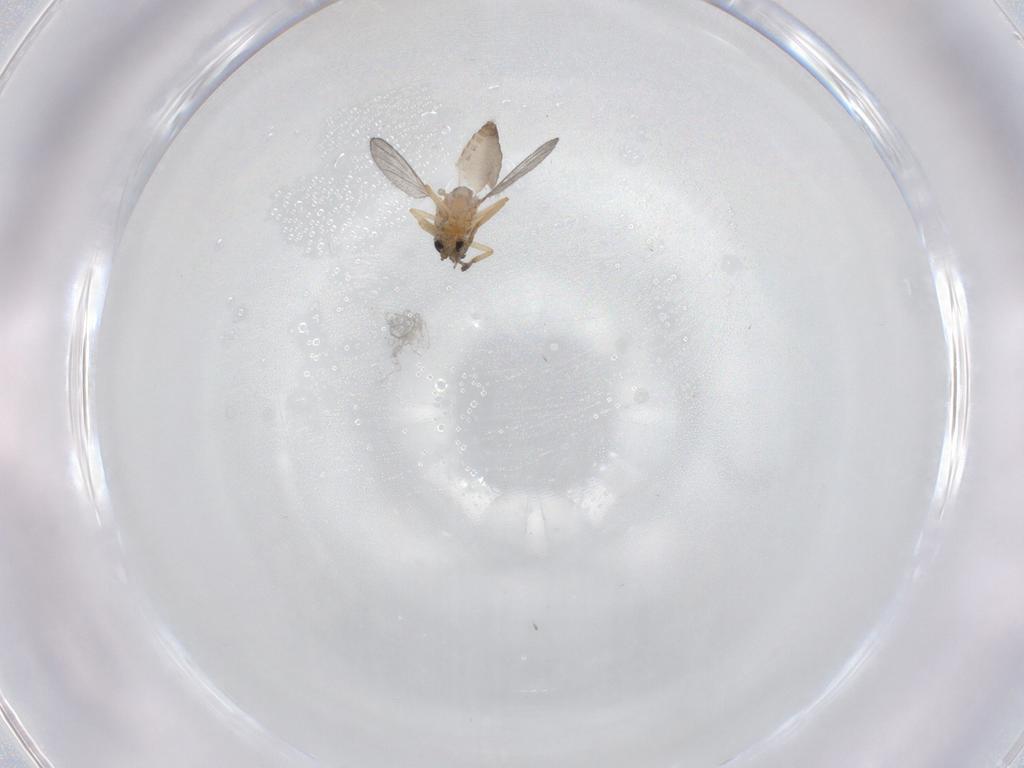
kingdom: Animalia
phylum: Arthropoda
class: Insecta
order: Diptera
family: Ceratopogonidae
